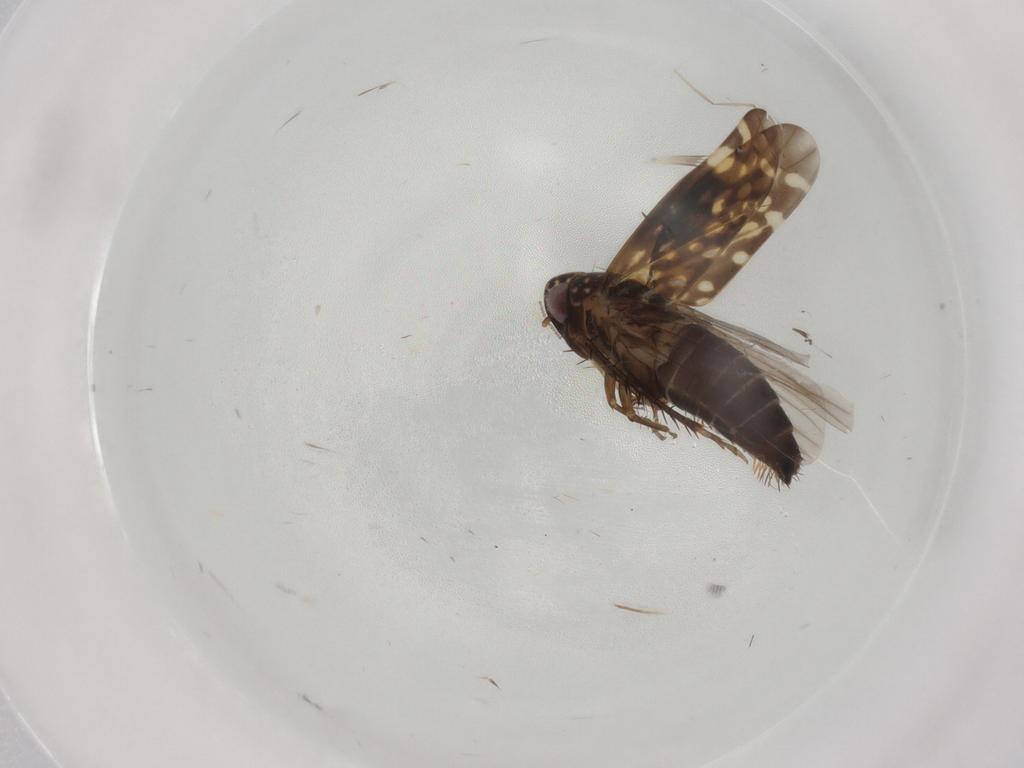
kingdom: Animalia
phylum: Arthropoda
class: Insecta
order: Hemiptera
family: Cicadellidae
